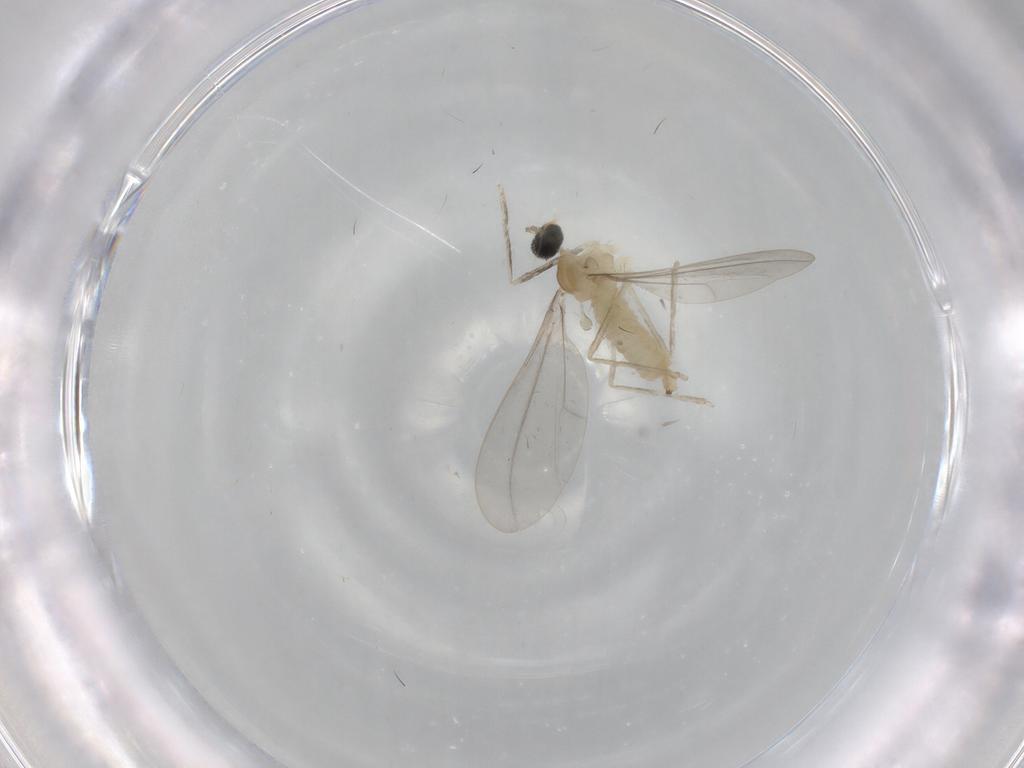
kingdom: Animalia
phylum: Arthropoda
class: Insecta
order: Diptera
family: Cecidomyiidae
